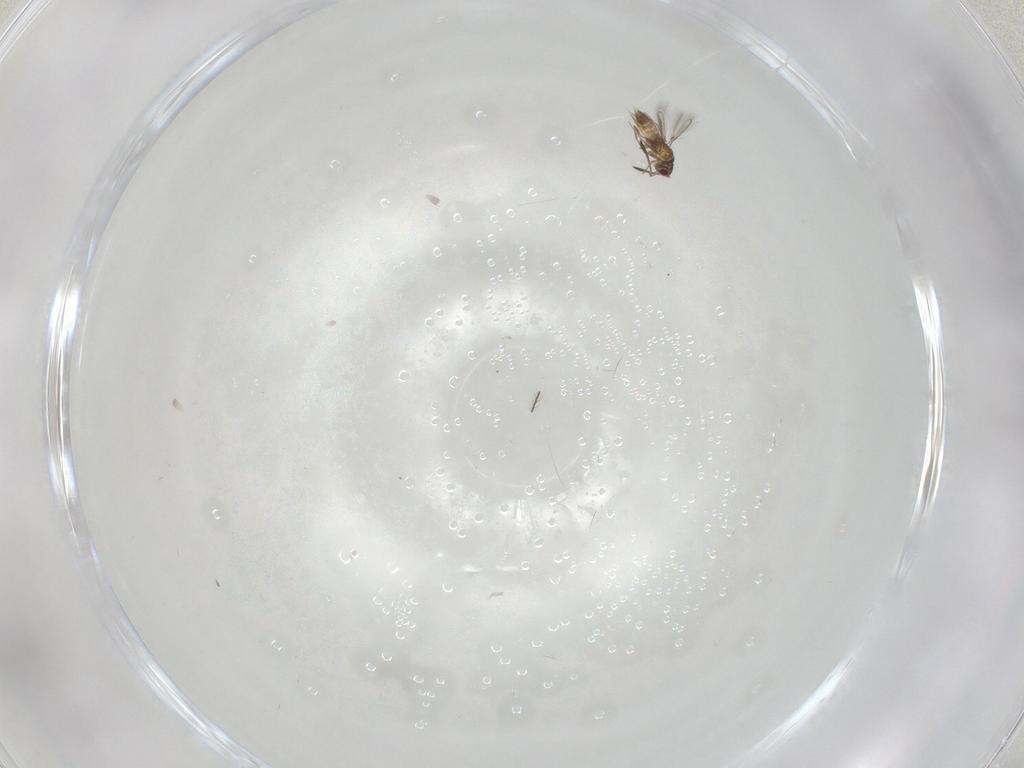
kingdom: Animalia
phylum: Arthropoda
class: Insecta
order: Hymenoptera
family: Mymaridae
